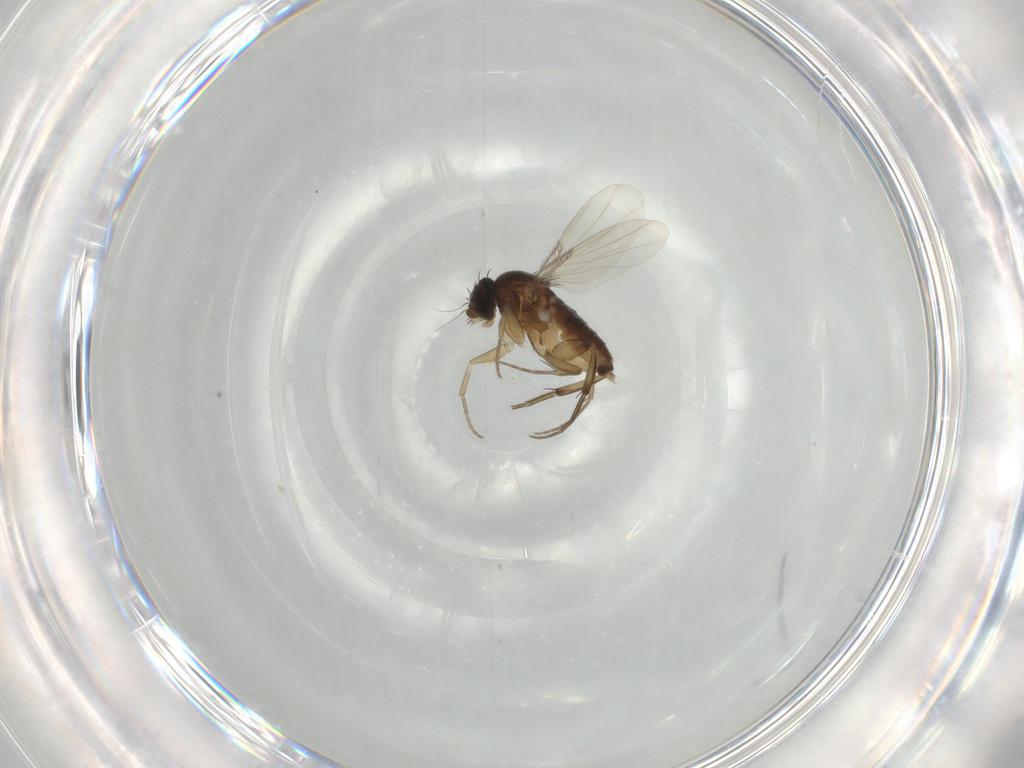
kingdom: Animalia
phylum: Arthropoda
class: Insecta
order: Diptera
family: Phoridae
